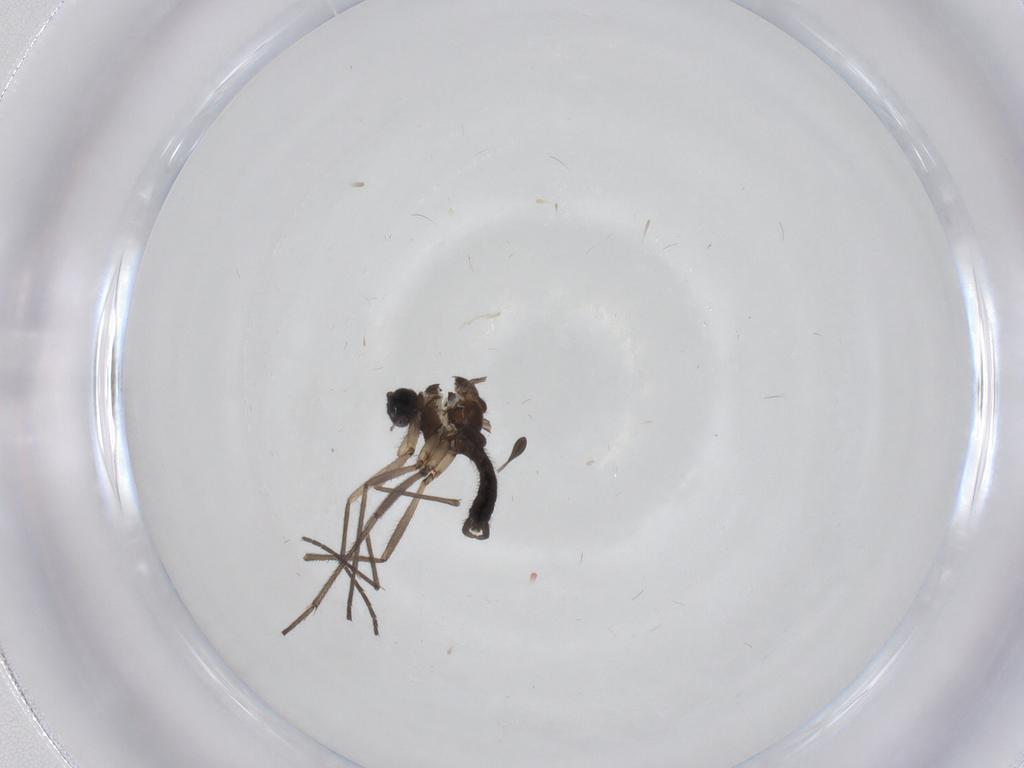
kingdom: Animalia
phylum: Arthropoda
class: Insecta
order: Diptera
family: Sciaridae
